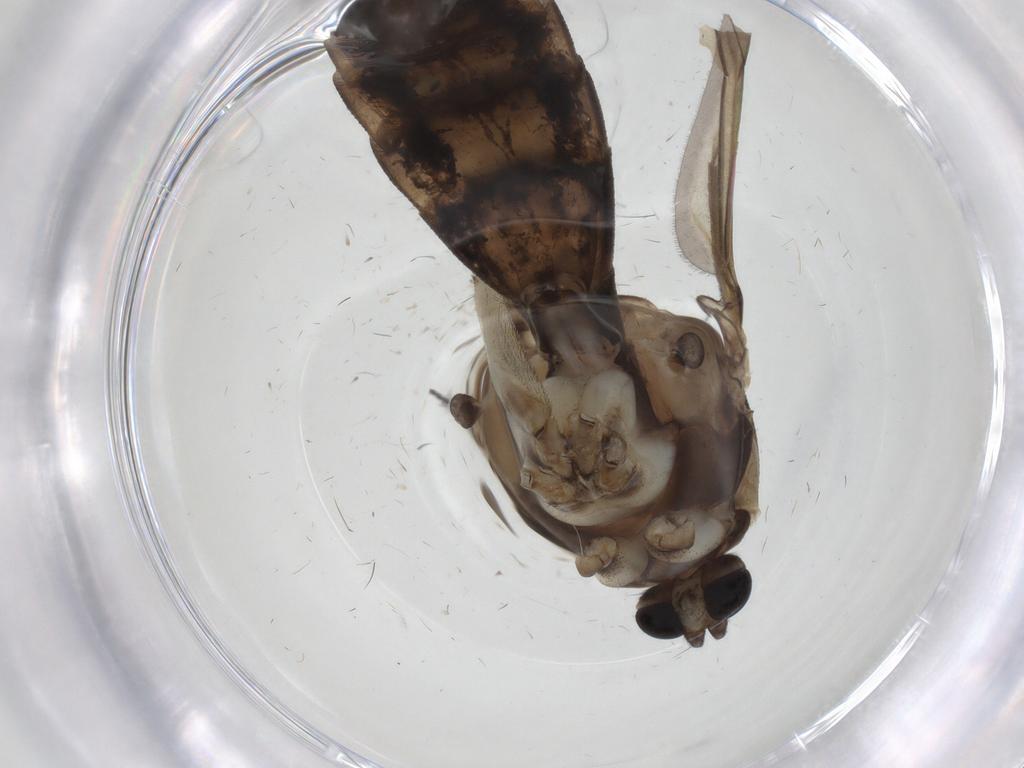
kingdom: Animalia
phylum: Arthropoda
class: Insecta
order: Diptera
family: Keroplatidae
